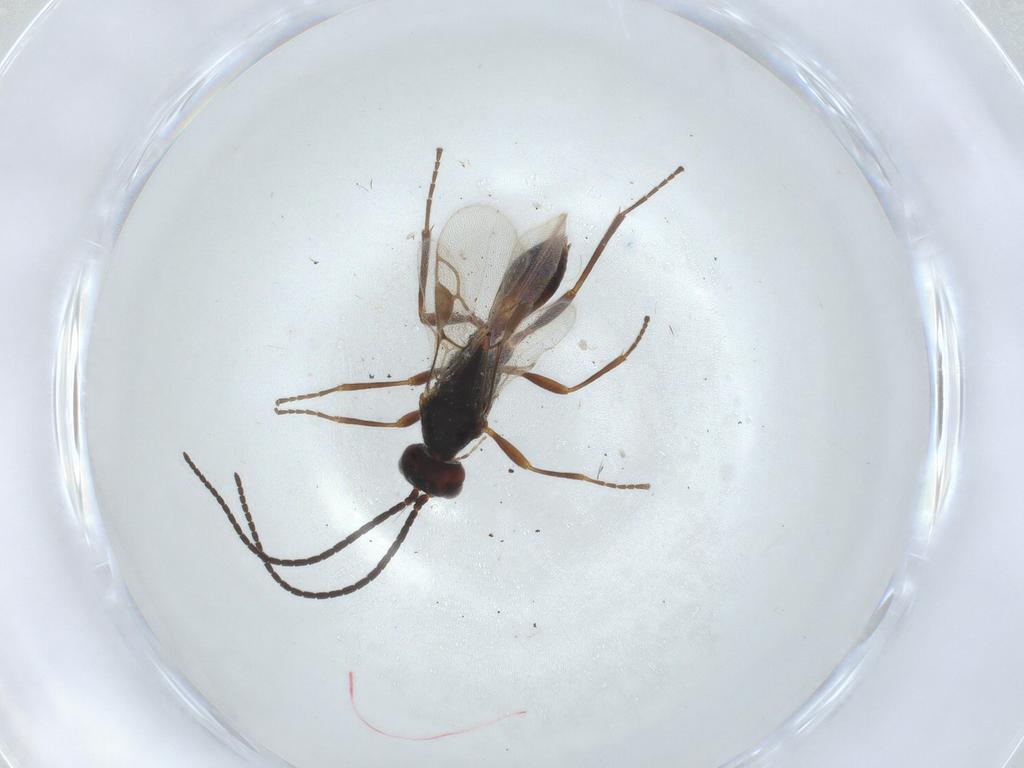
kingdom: Animalia
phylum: Arthropoda
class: Insecta
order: Hymenoptera
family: Braconidae
